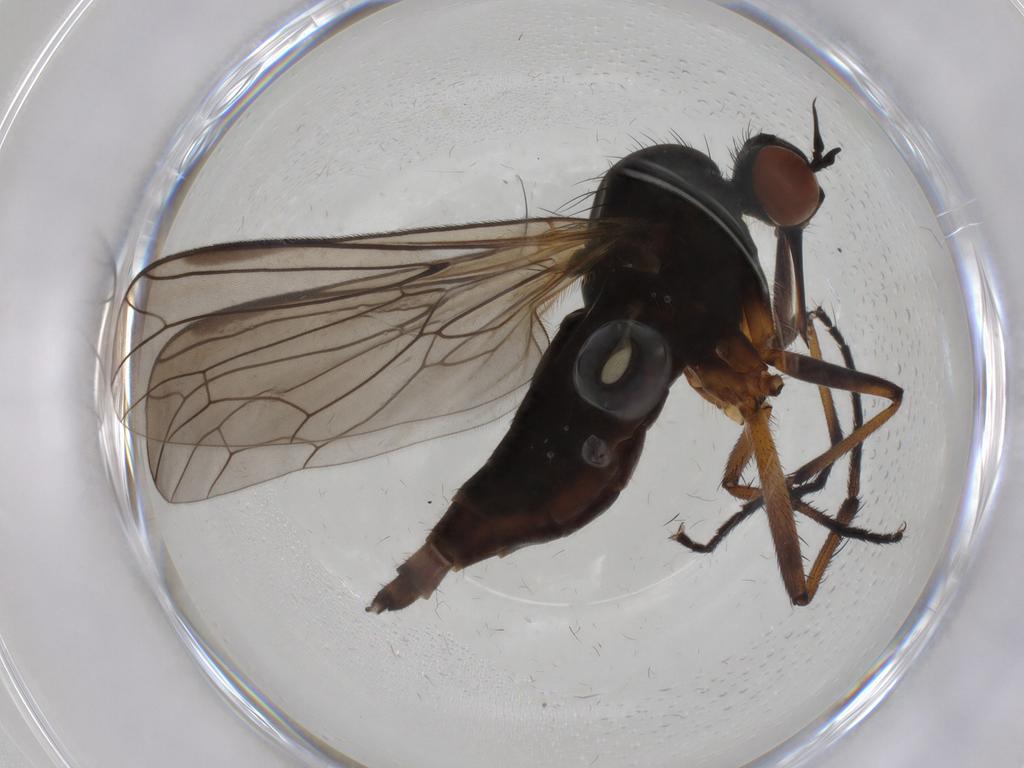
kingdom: Animalia
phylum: Arthropoda
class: Insecta
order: Diptera
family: Empididae
